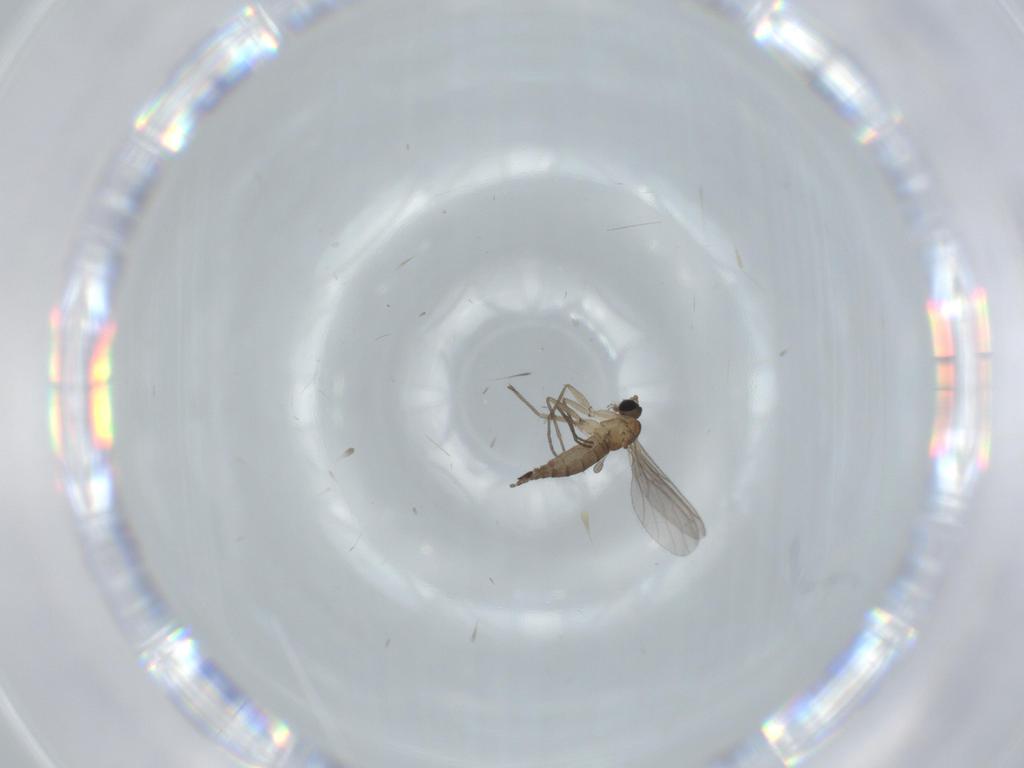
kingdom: Animalia
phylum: Arthropoda
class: Insecta
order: Diptera
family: Sciaridae
